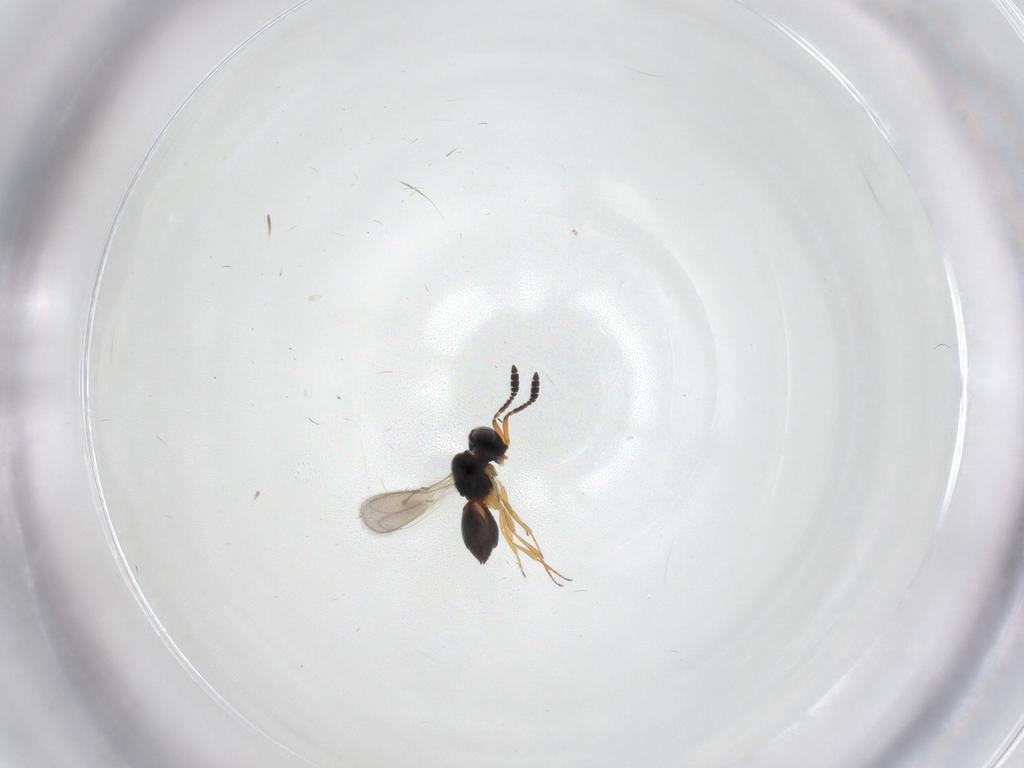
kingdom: Animalia
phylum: Arthropoda
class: Insecta
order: Hymenoptera
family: Scelionidae
